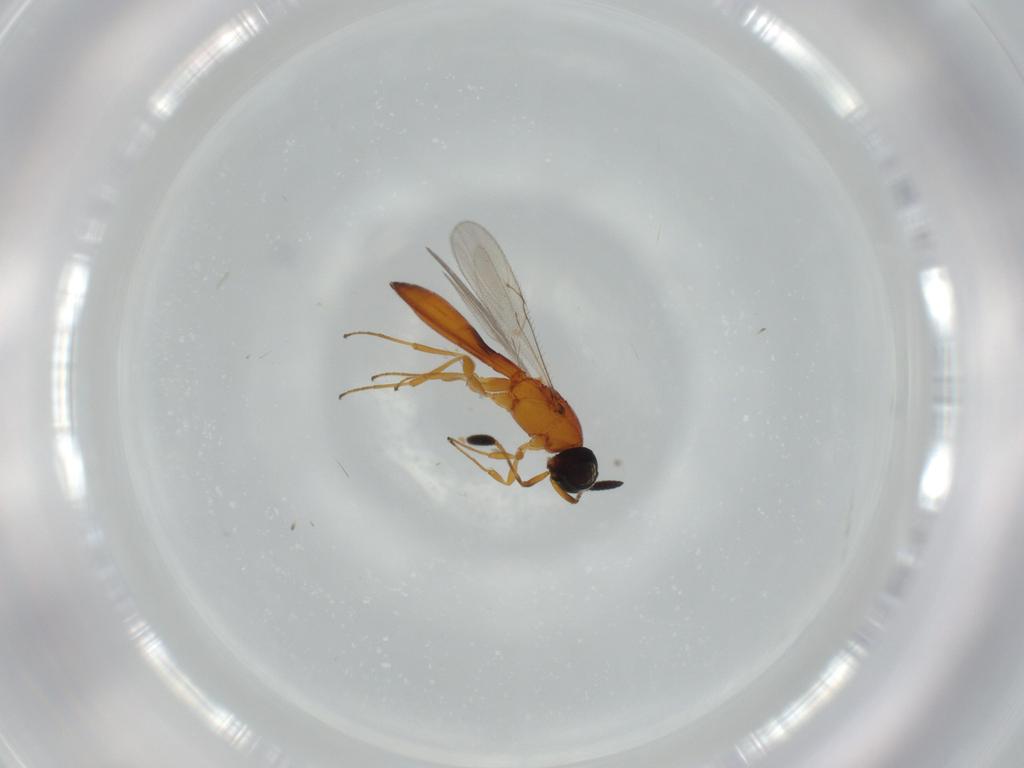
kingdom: Animalia
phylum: Arthropoda
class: Insecta
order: Hymenoptera
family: Scelionidae
